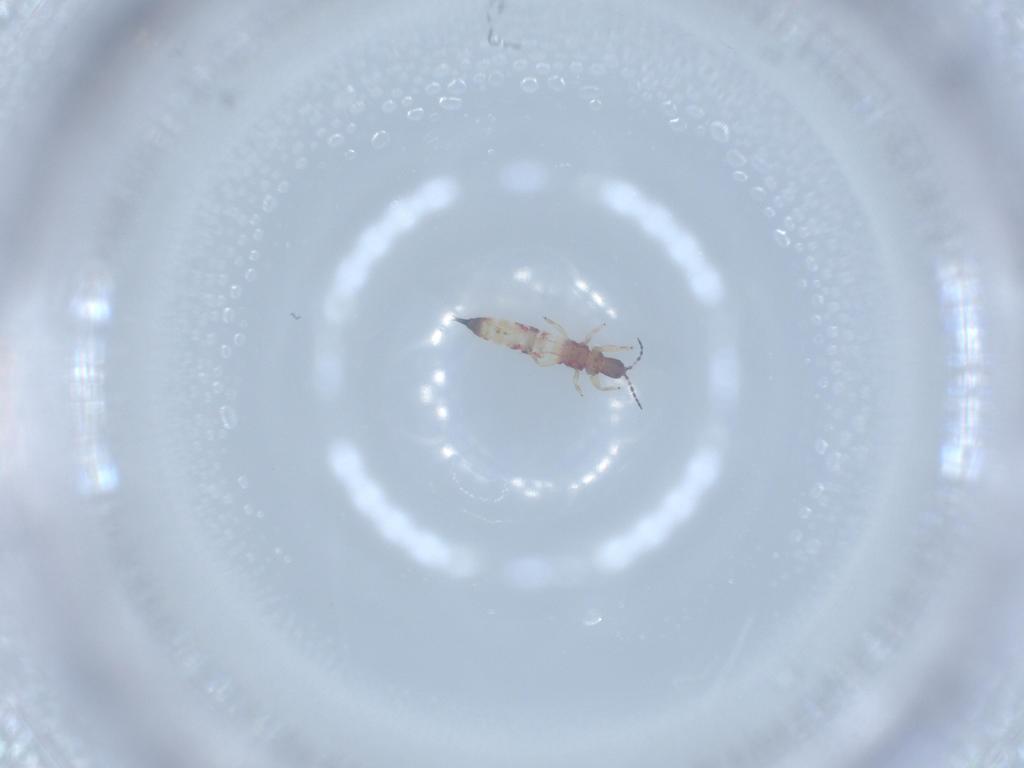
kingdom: Animalia
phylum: Arthropoda
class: Insecta
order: Thysanoptera
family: Phlaeothripidae
